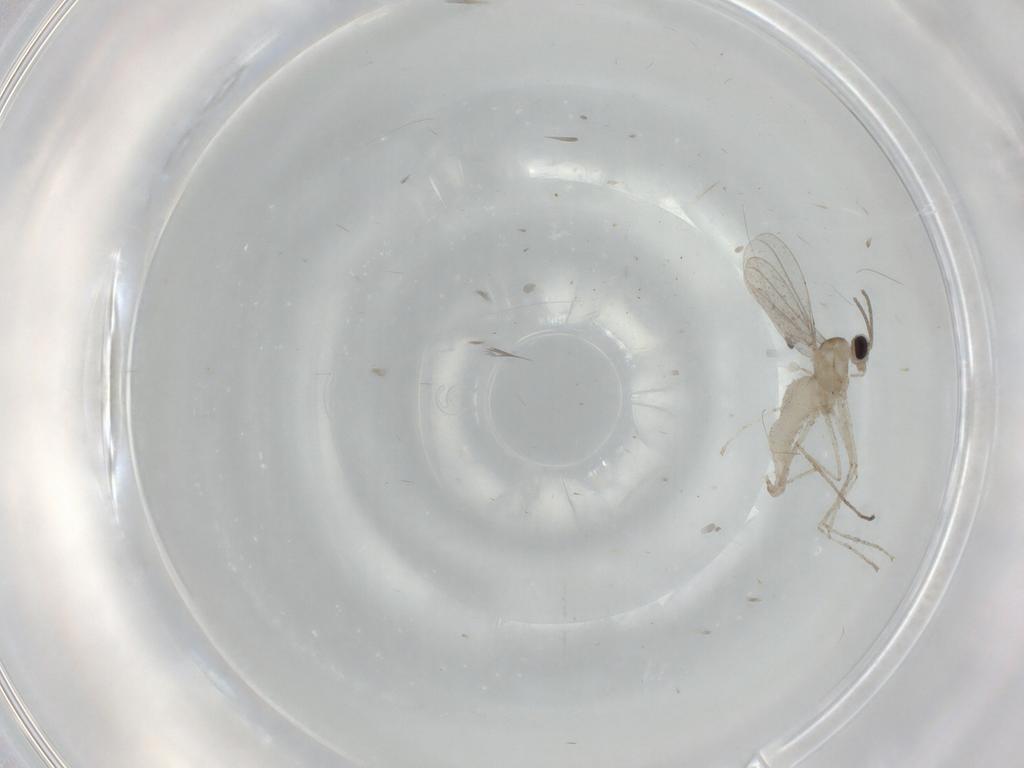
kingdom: Animalia
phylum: Arthropoda
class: Insecta
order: Diptera
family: Cecidomyiidae
